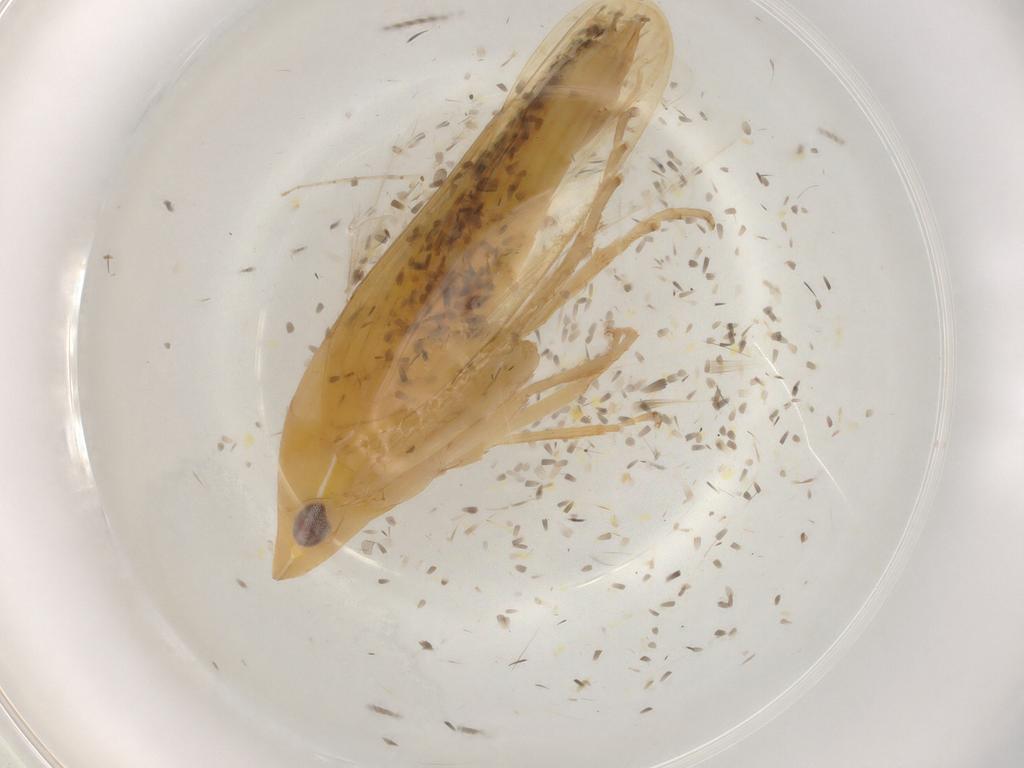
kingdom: Animalia
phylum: Arthropoda
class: Insecta
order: Hemiptera
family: Cicadellidae
